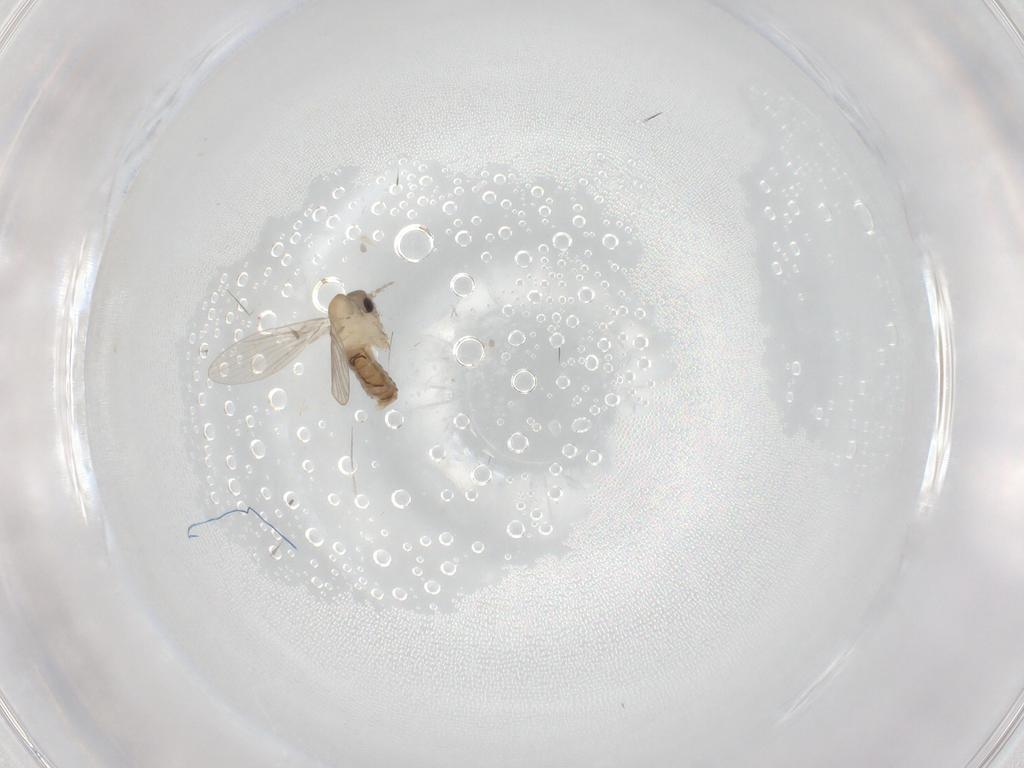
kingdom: Animalia
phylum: Arthropoda
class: Insecta
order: Diptera
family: Psychodidae
